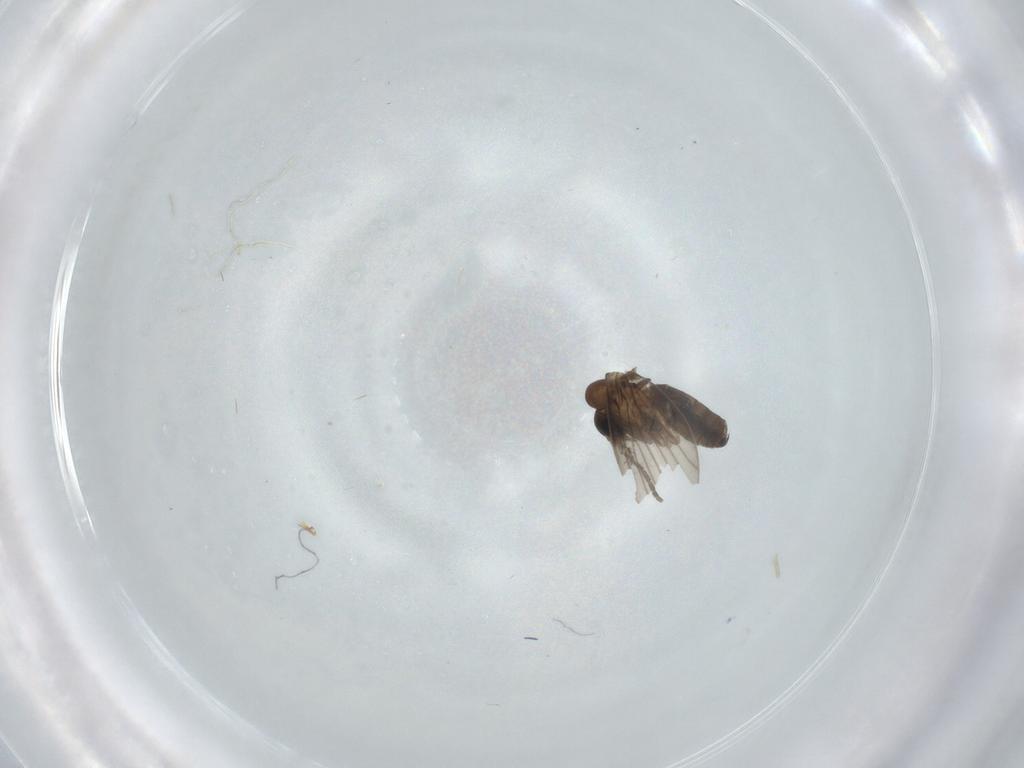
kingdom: Animalia
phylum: Arthropoda
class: Insecta
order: Diptera
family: Psychodidae
